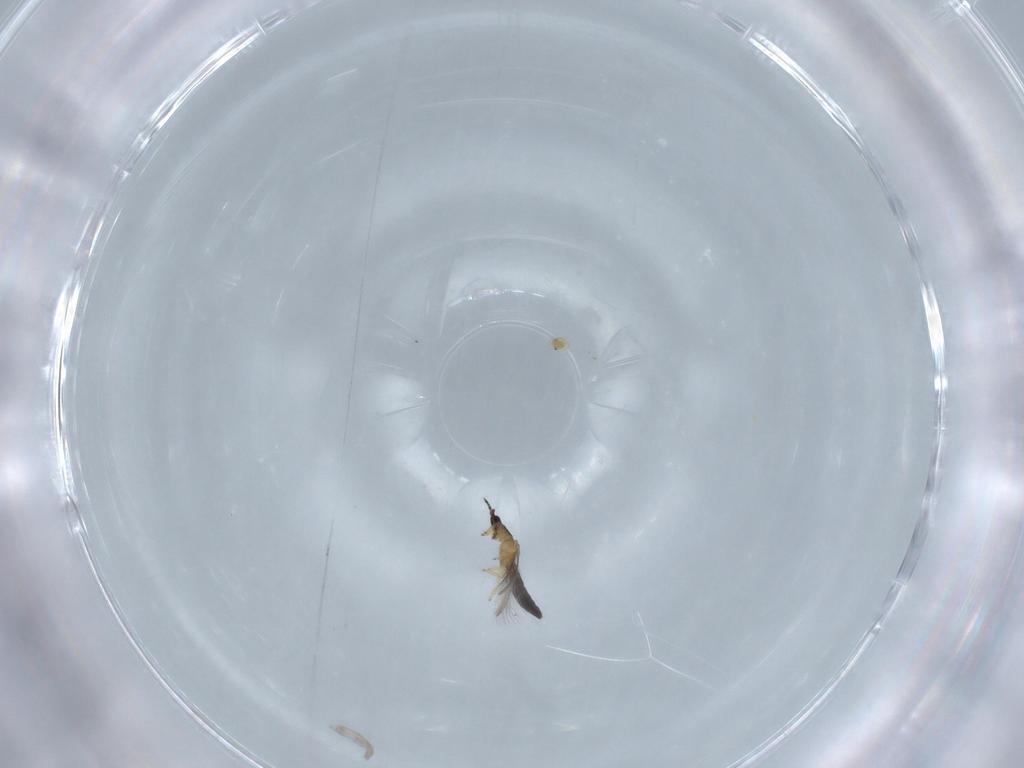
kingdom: Animalia
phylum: Arthropoda
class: Insecta
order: Thysanoptera
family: Thripidae
